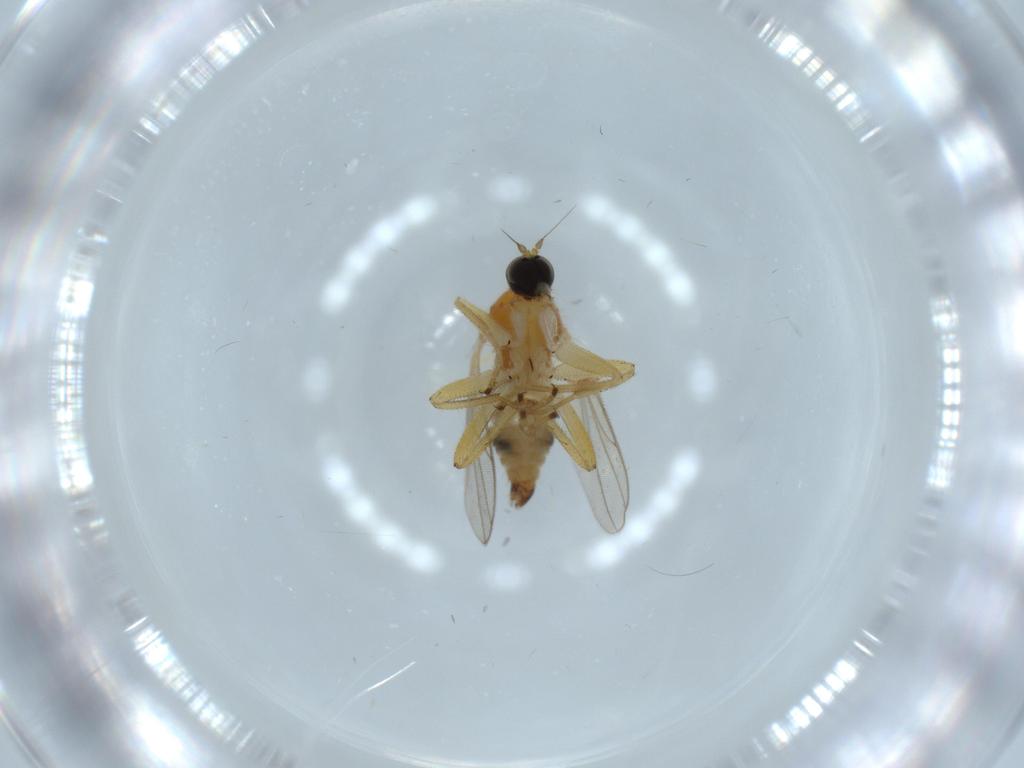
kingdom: Animalia
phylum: Arthropoda
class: Insecta
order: Diptera
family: Hybotidae
